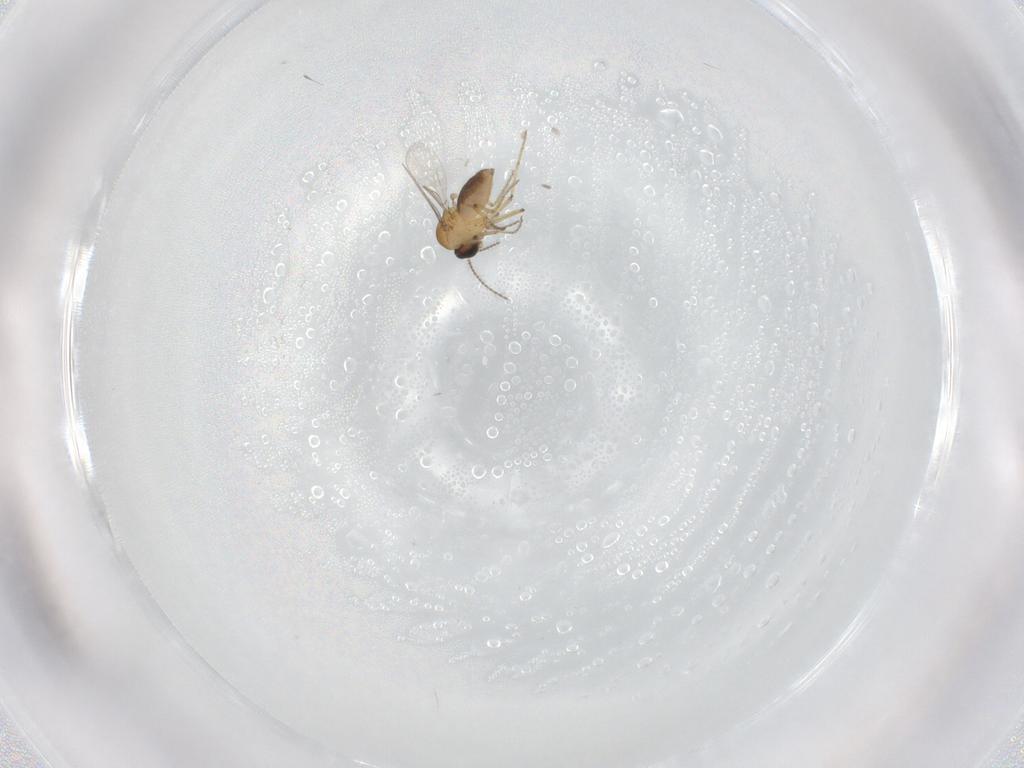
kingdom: Animalia
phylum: Arthropoda
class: Insecta
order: Diptera
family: Ceratopogonidae
